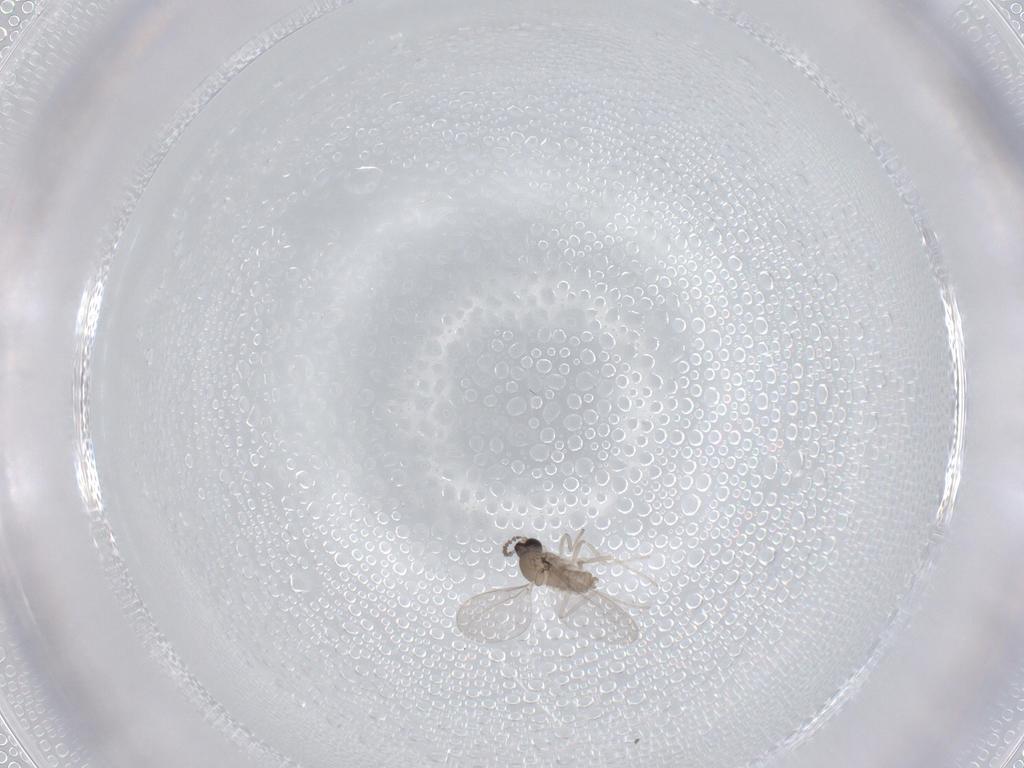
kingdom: Animalia
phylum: Arthropoda
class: Insecta
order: Diptera
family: Cecidomyiidae
